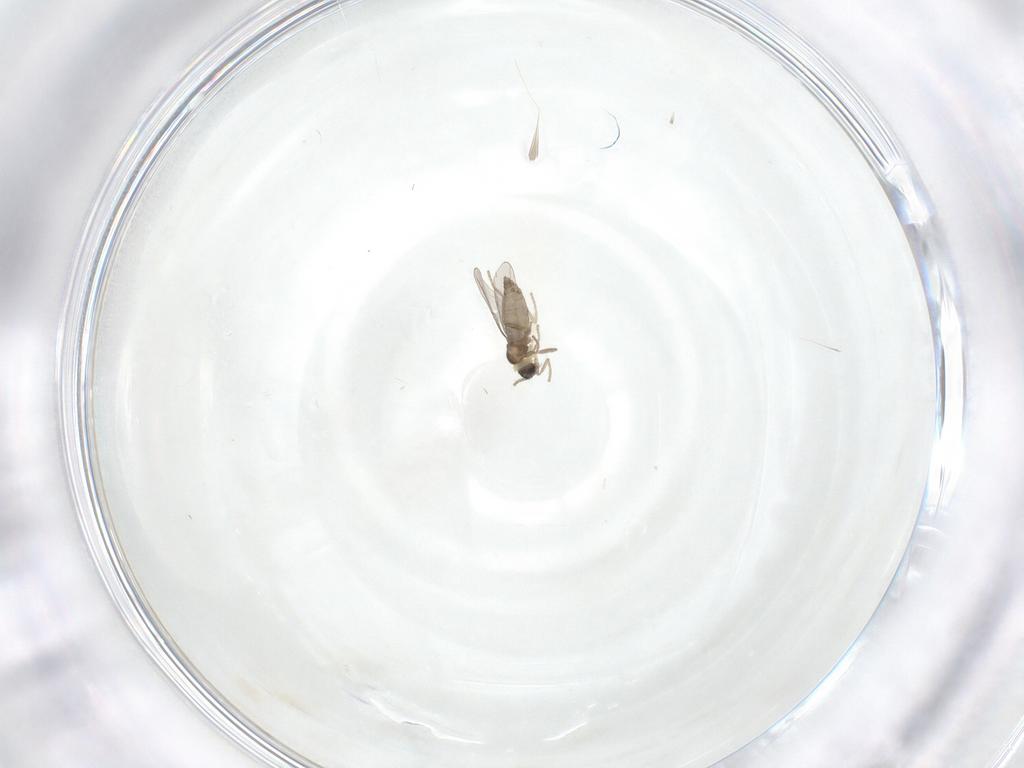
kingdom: Animalia
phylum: Arthropoda
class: Insecta
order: Diptera
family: Cecidomyiidae
